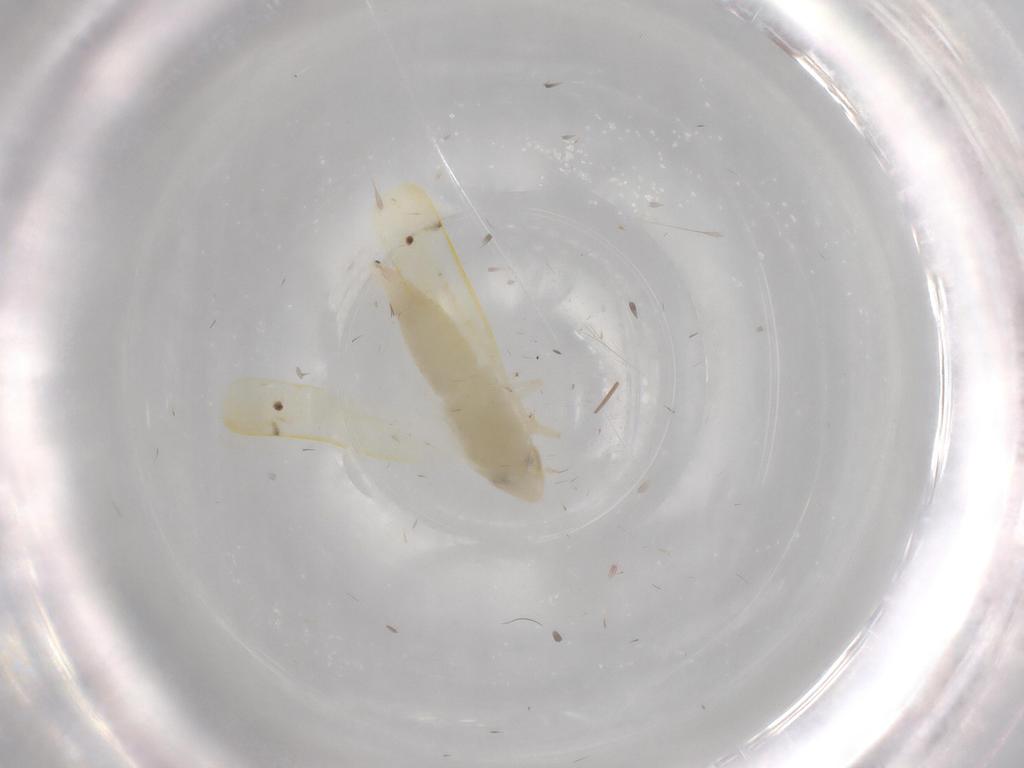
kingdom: Animalia
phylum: Arthropoda
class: Insecta
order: Hemiptera
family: Cicadellidae
